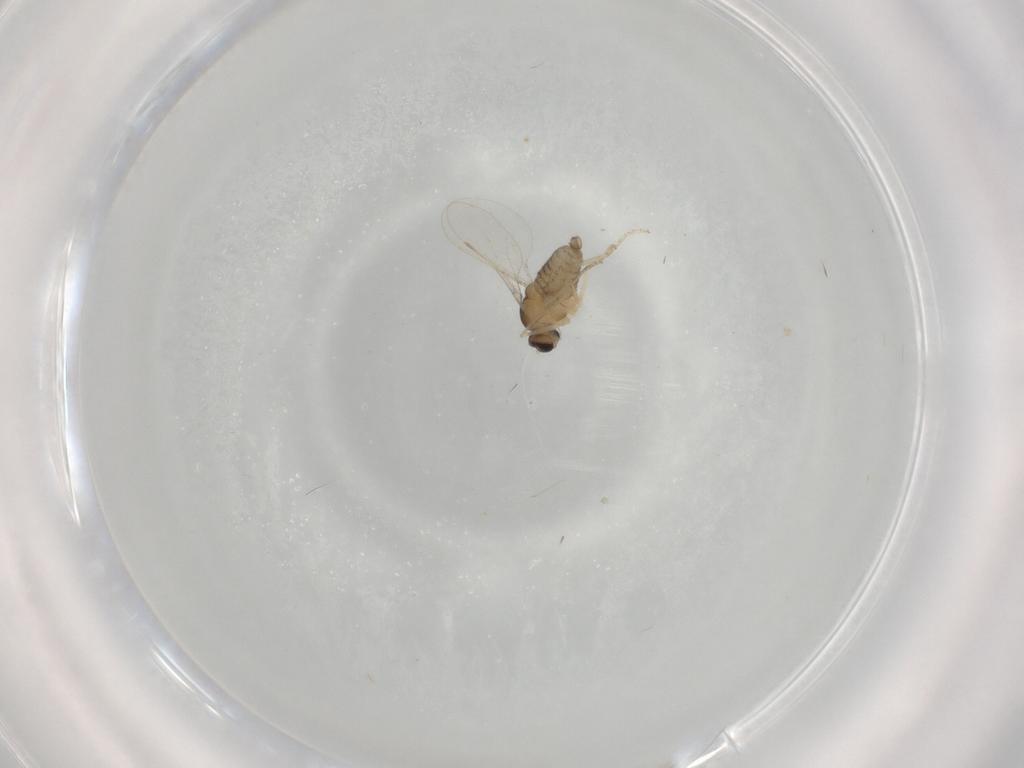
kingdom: Animalia
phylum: Arthropoda
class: Insecta
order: Diptera
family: Cecidomyiidae
